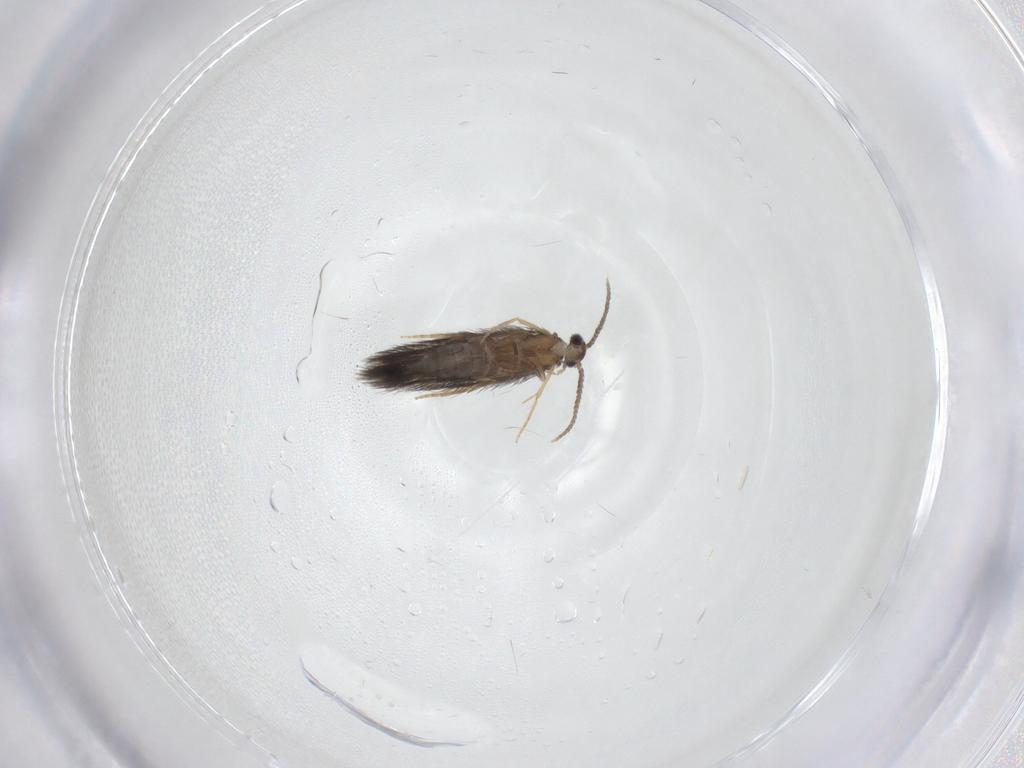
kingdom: Animalia
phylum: Arthropoda
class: Insecta
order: Trichoptera
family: Hydroptilidae
